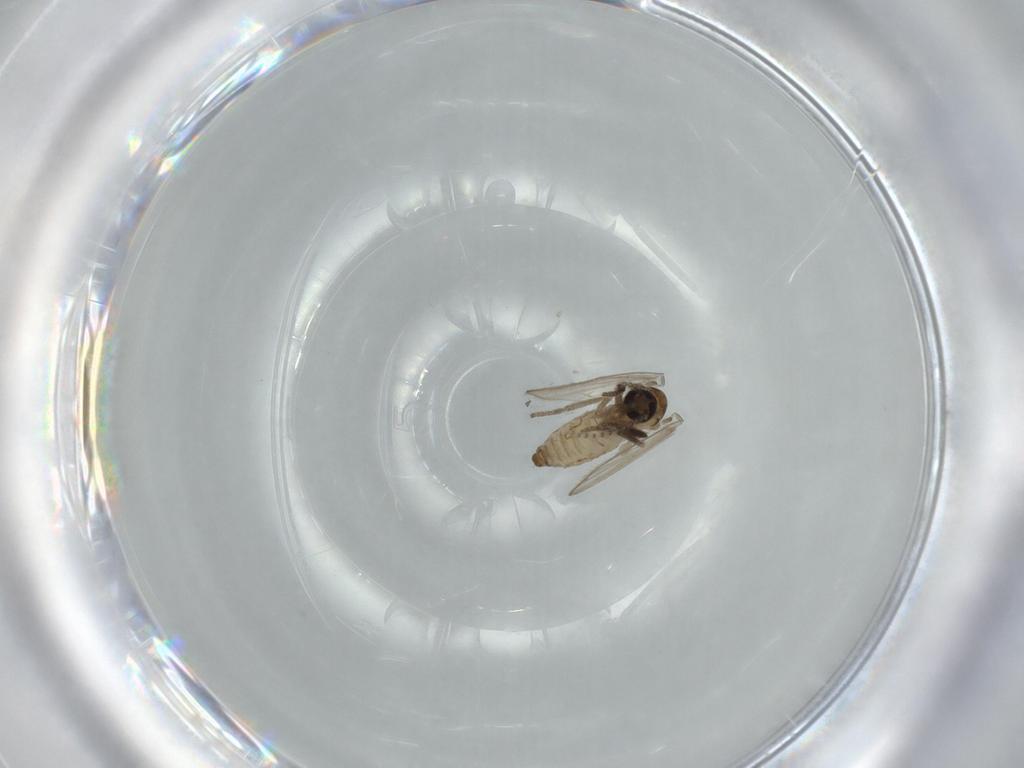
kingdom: Animalia
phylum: Arthropoda
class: Insecta
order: Diptera
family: Psychodidae
